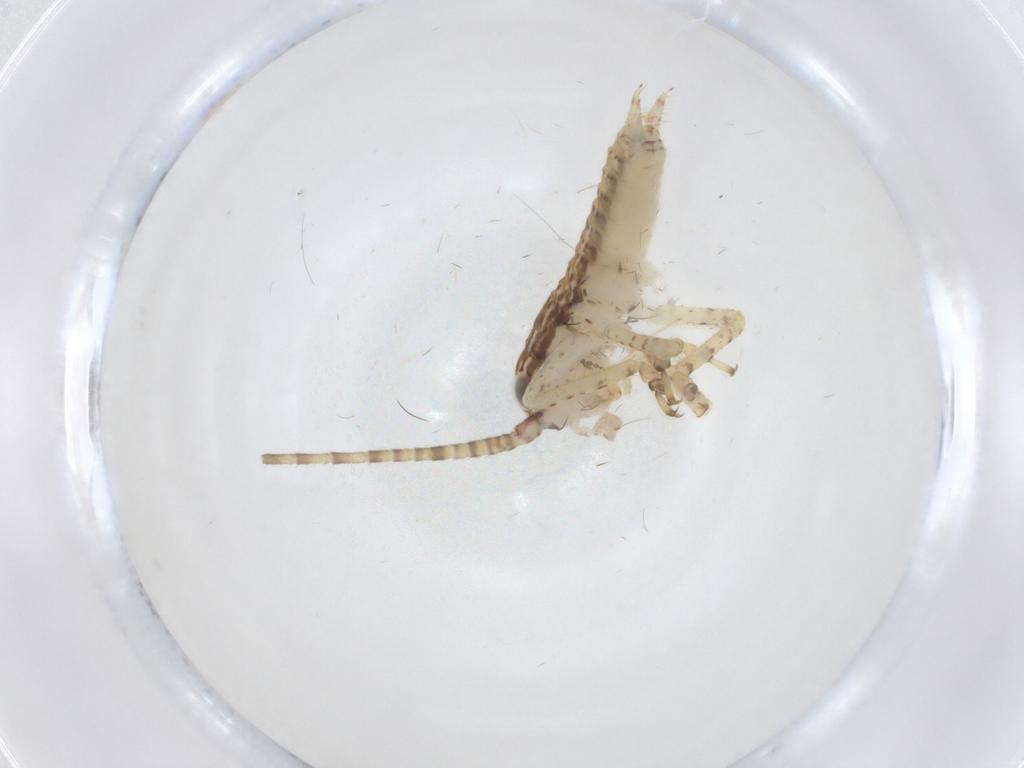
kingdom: Animalia
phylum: Arthropoda
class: Insecta
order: Orthoptera
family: Gryllidae
